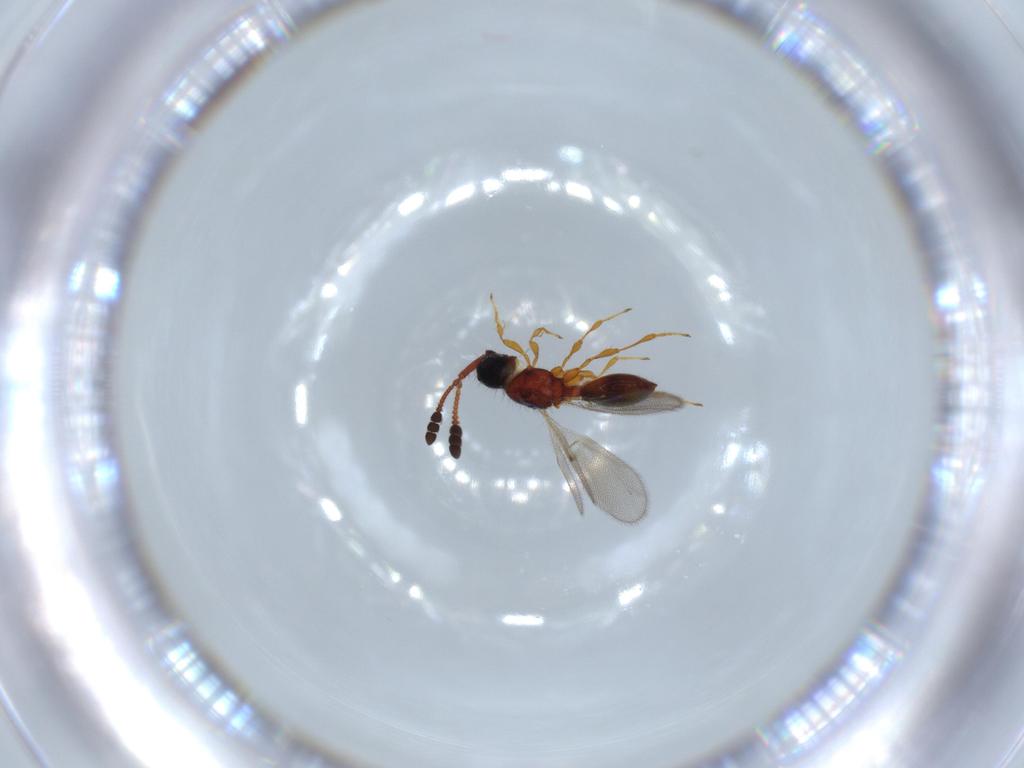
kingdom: Animalia
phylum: Arthropoda
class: Insecta
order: Hymenoptera
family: Diapriidae
